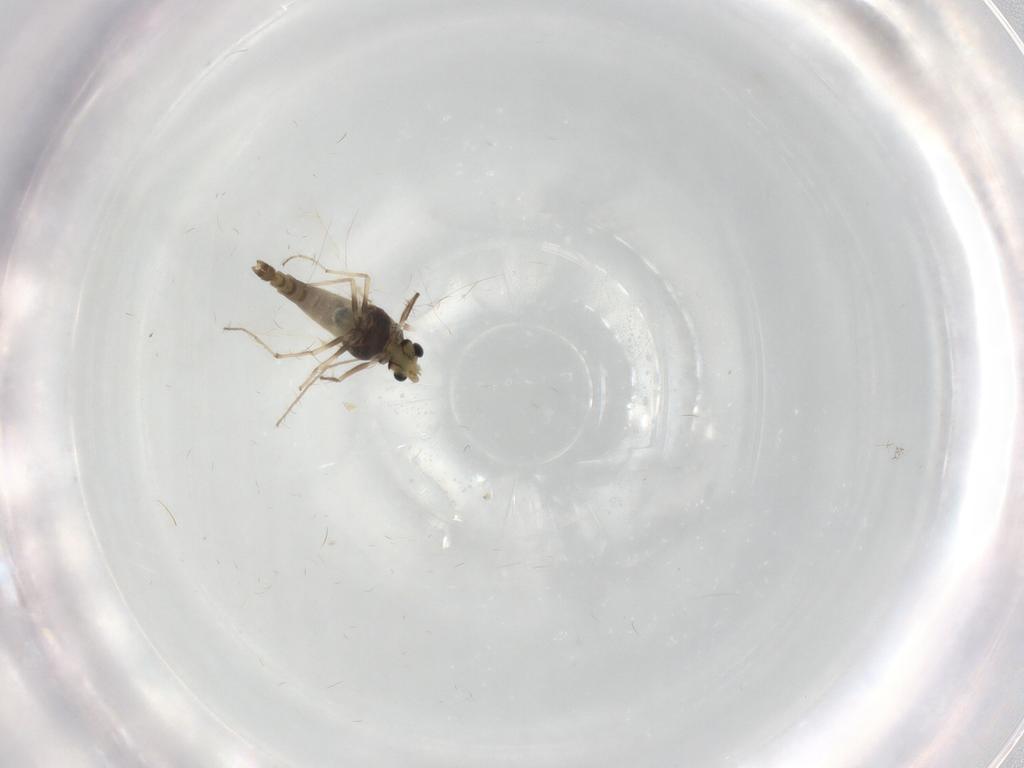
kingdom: Animalia
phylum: Arthropoda
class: Insecta
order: Diptera
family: Chironomidae
